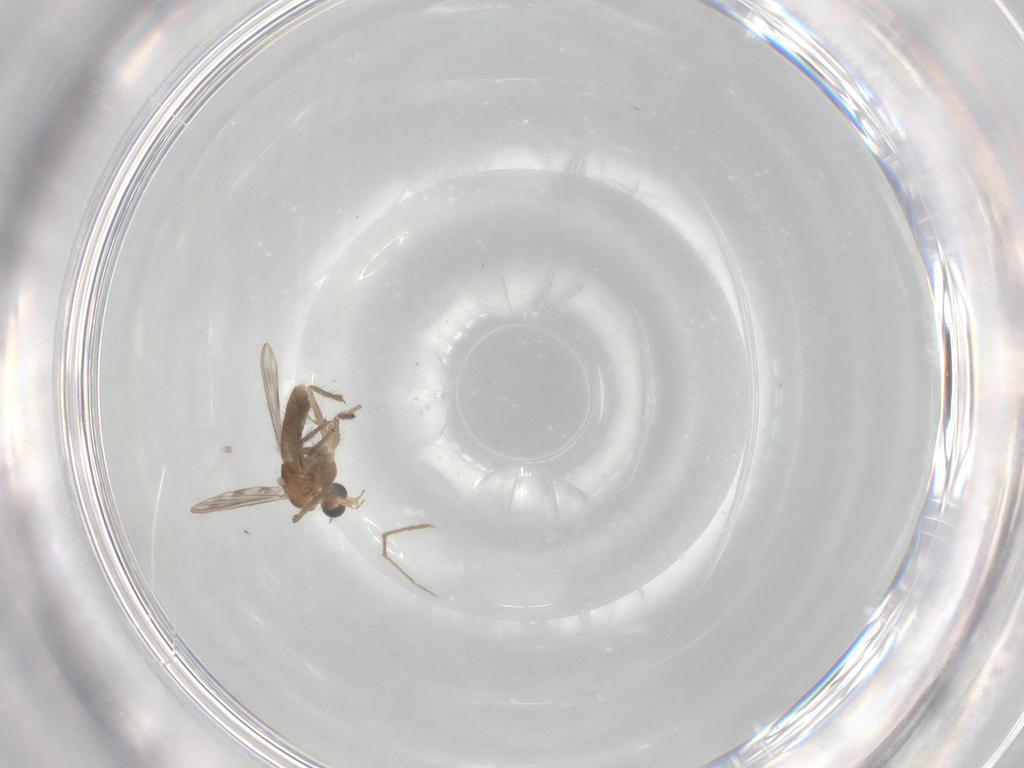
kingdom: Animalia
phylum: Arthropoda
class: Insecta
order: Diptera
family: Chironomidae
